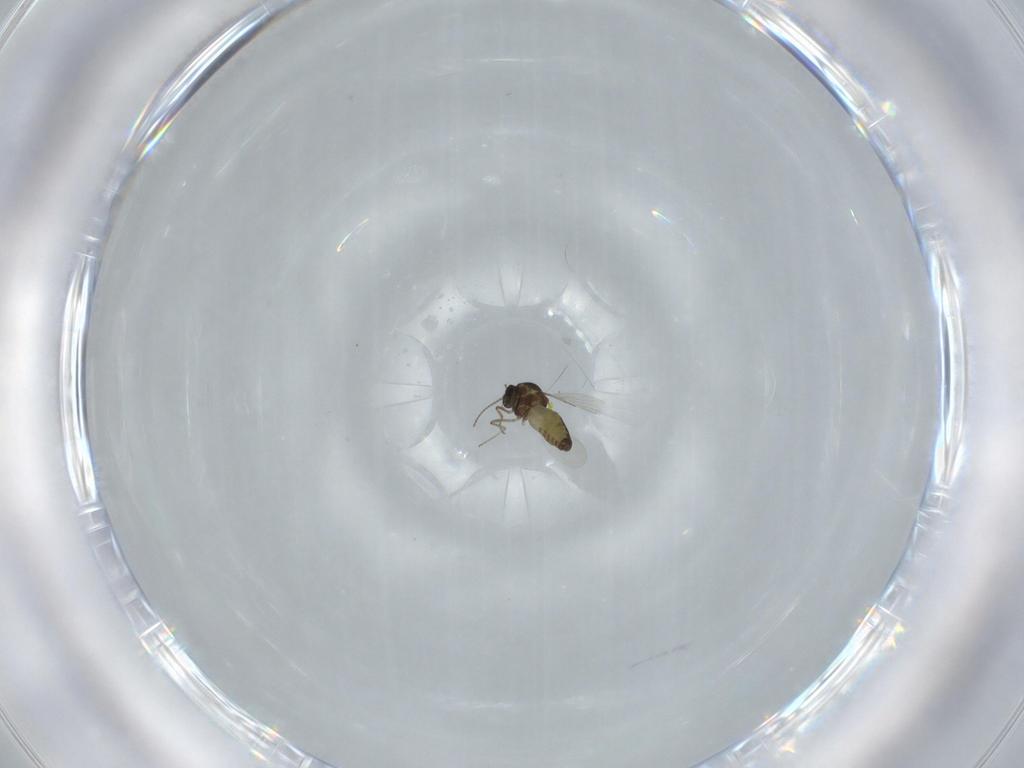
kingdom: Animalia
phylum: Arthropoda
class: Insecta
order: Diptera
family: Ceratopogonidae
